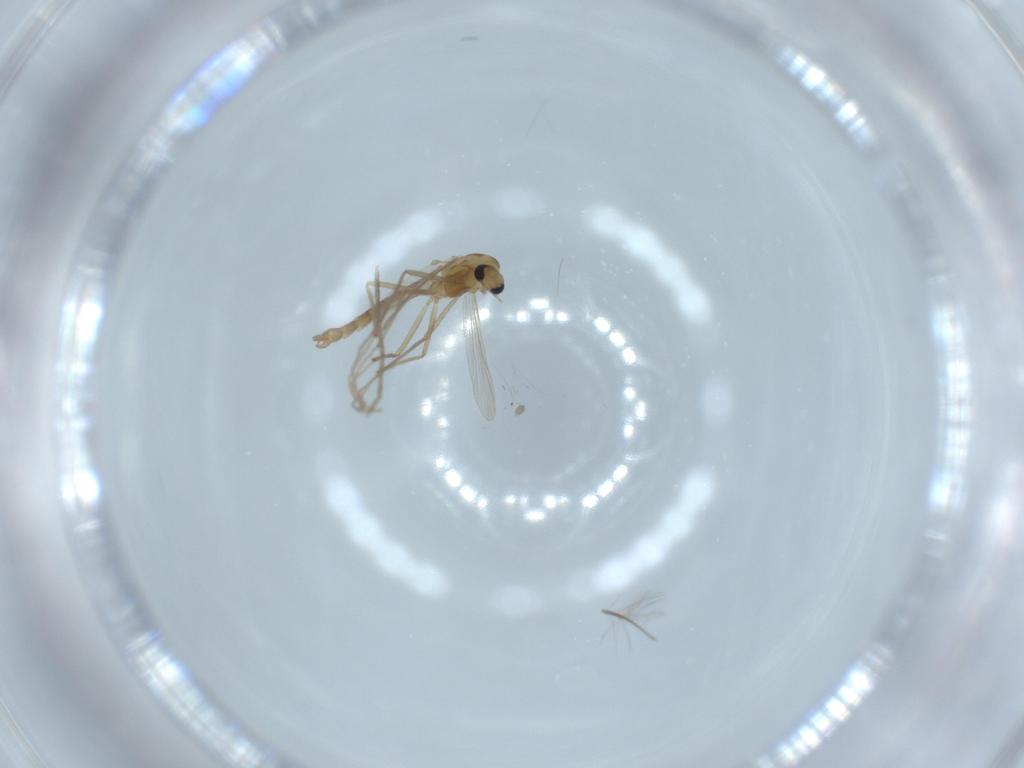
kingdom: Animalia
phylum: Arthropoda
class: Insecta
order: Diptera
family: Chironomidae
